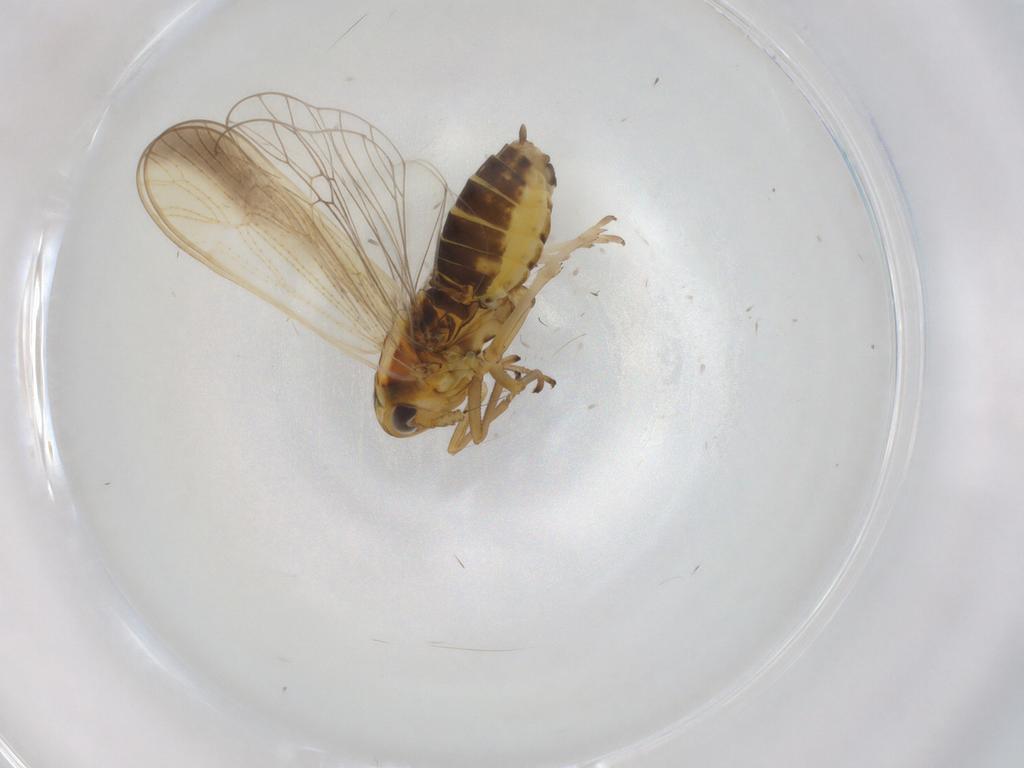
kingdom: Animalia
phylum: Arthropoda
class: Insecta
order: Hemiptera
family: Delphacidae
